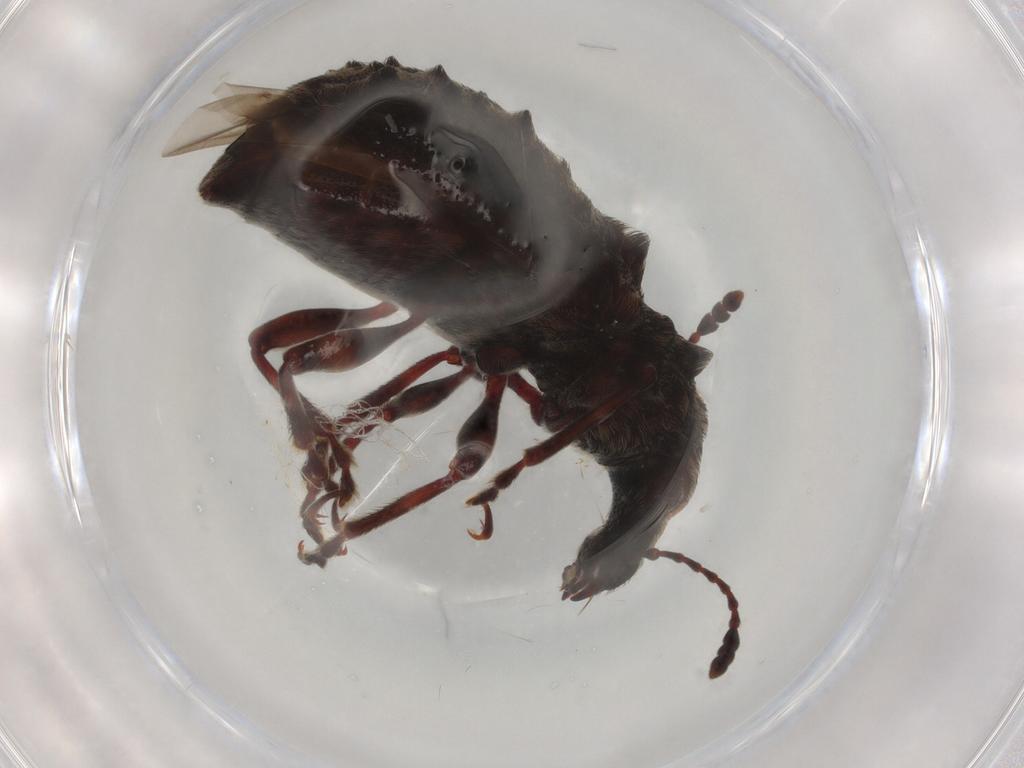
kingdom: Animalia
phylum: Arthropoda
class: Insecta
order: Coleoptera
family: Anthribidae
